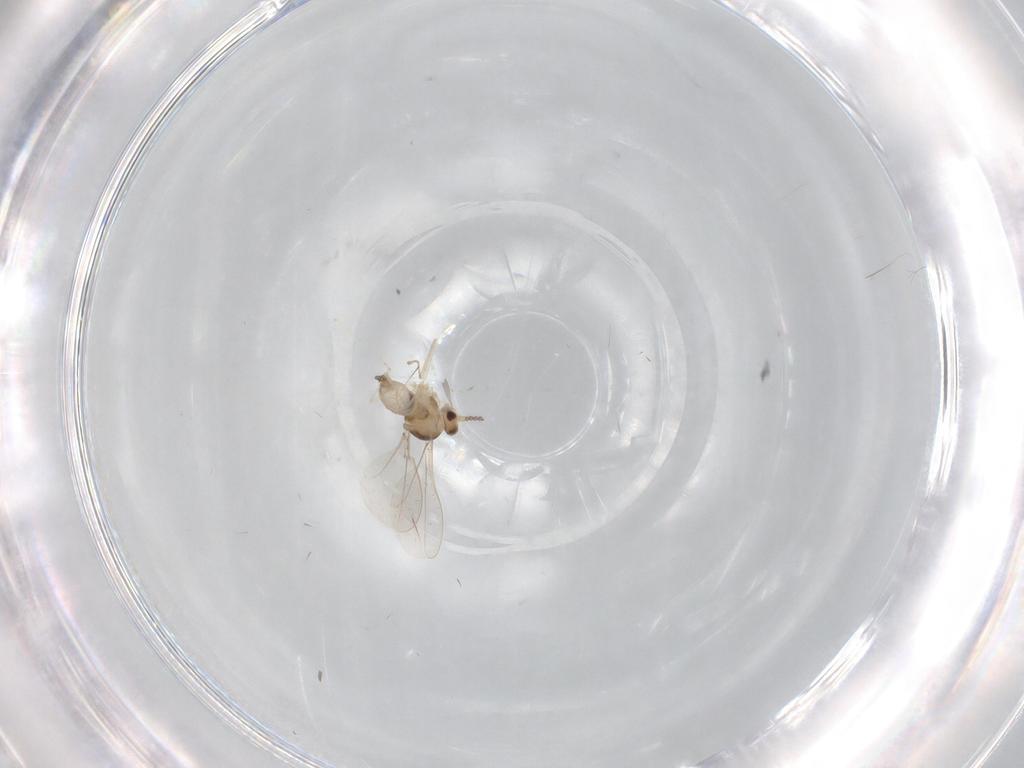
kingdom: Animalia
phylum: Arthropoda
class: Insecta
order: Diptera
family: Cecidomyiidae
